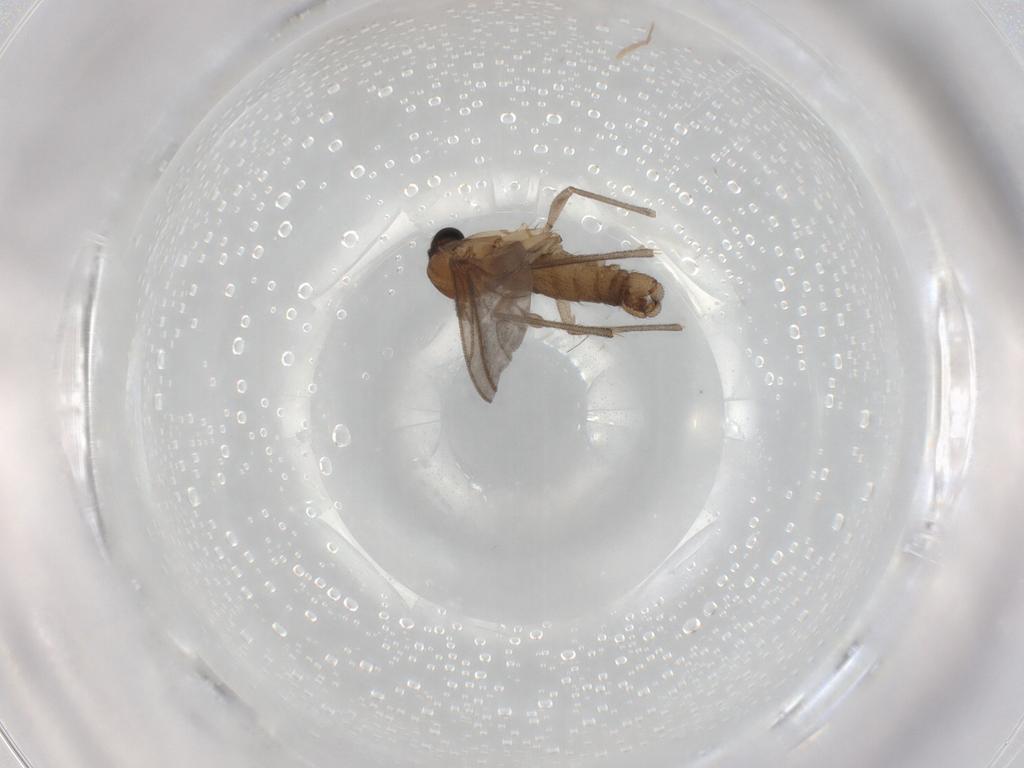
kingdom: Animalia
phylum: Arthropoda
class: Insecta
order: Diptera
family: Sciaridae
